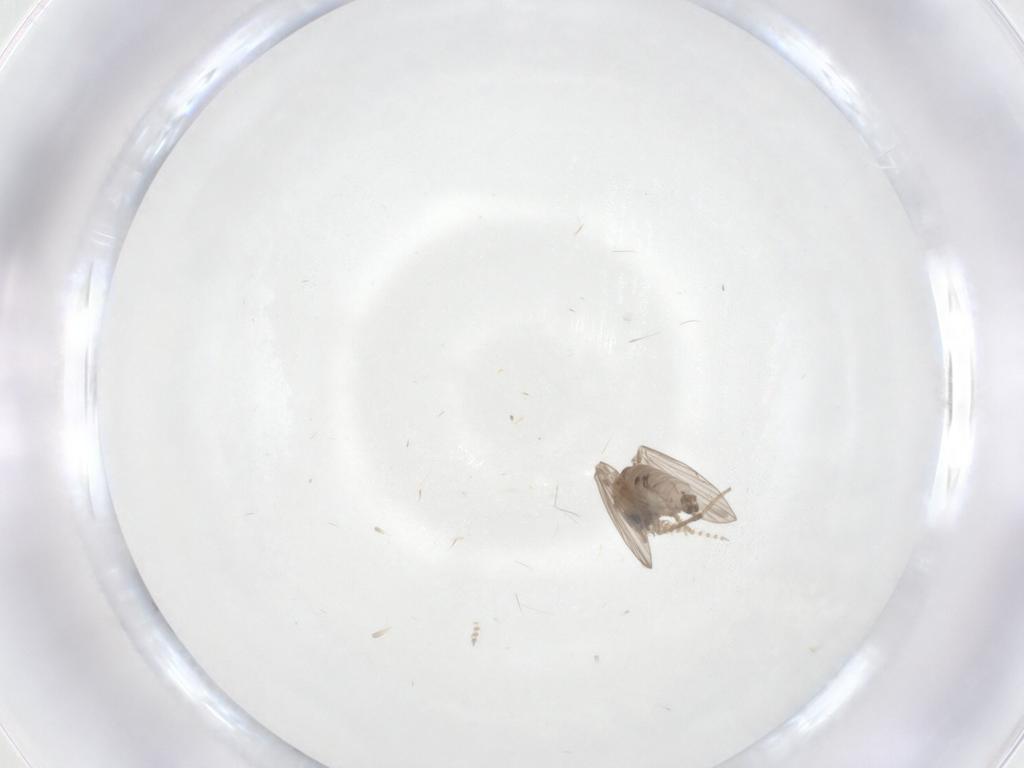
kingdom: Animalia
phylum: Arthropoda
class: Insecta
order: Diptera
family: Psychodidae
